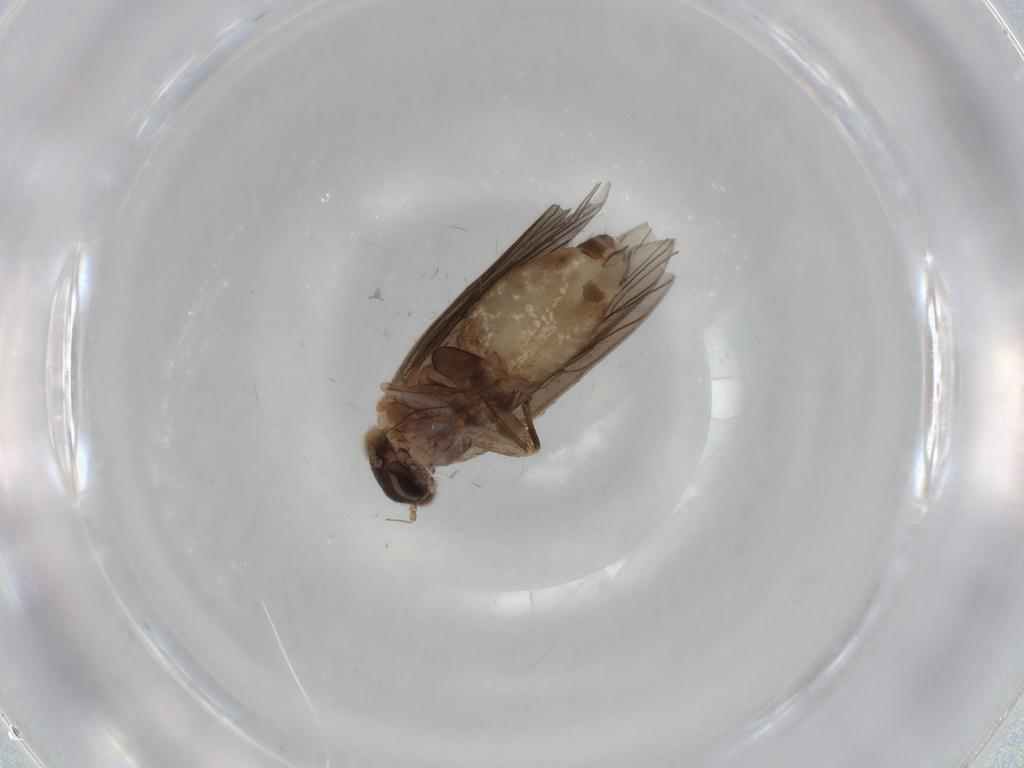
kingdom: Animalia
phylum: Arthropoda
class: Insecta
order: Psocodea
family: Lepidopsocidae
